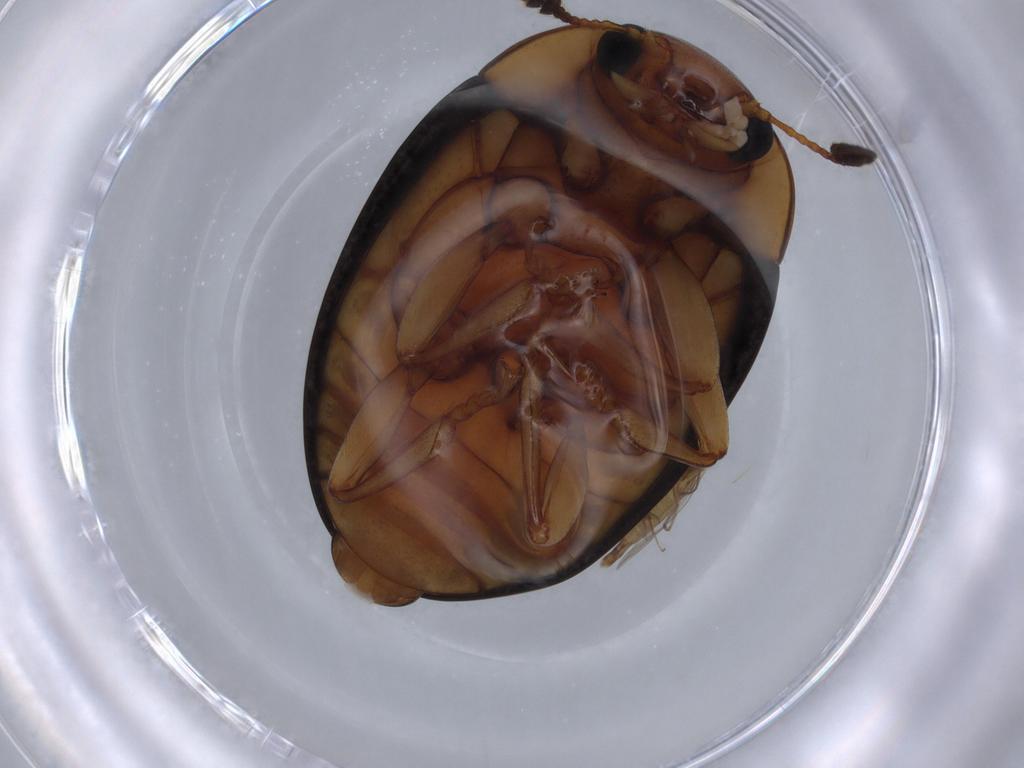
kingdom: Animalia
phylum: Arthropoda
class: Insecta
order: Coleoptera
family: Erotylidae
